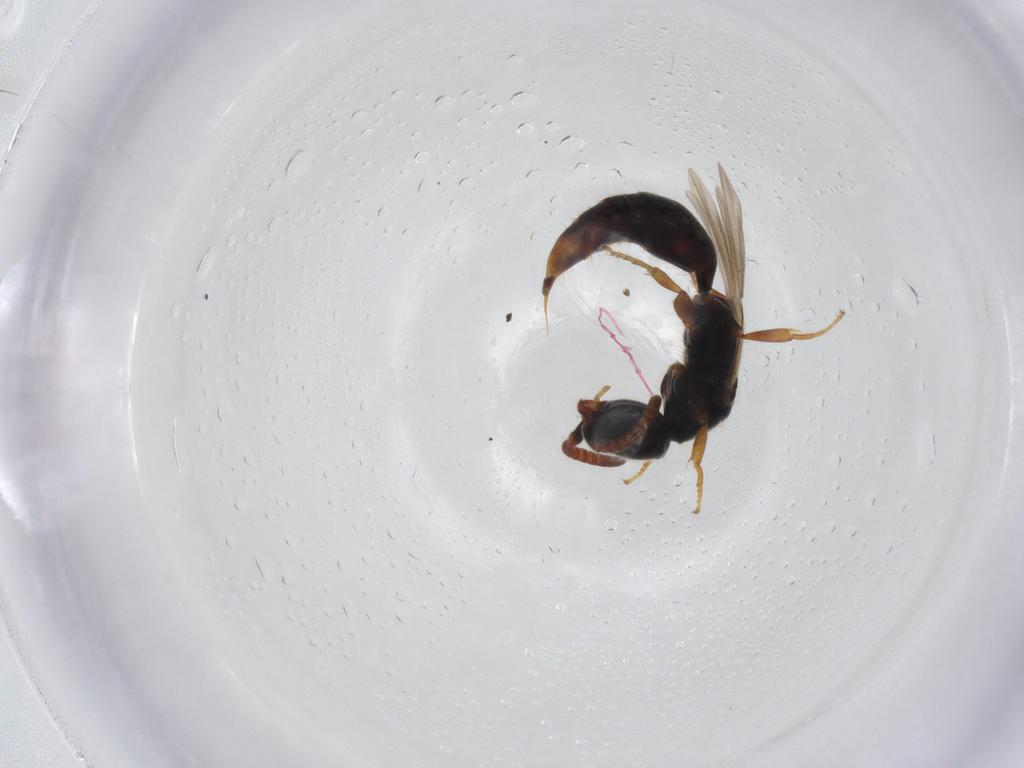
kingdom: Animalia
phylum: Arthropoda
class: Insecta
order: Hymenoptera
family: Bethylidae
